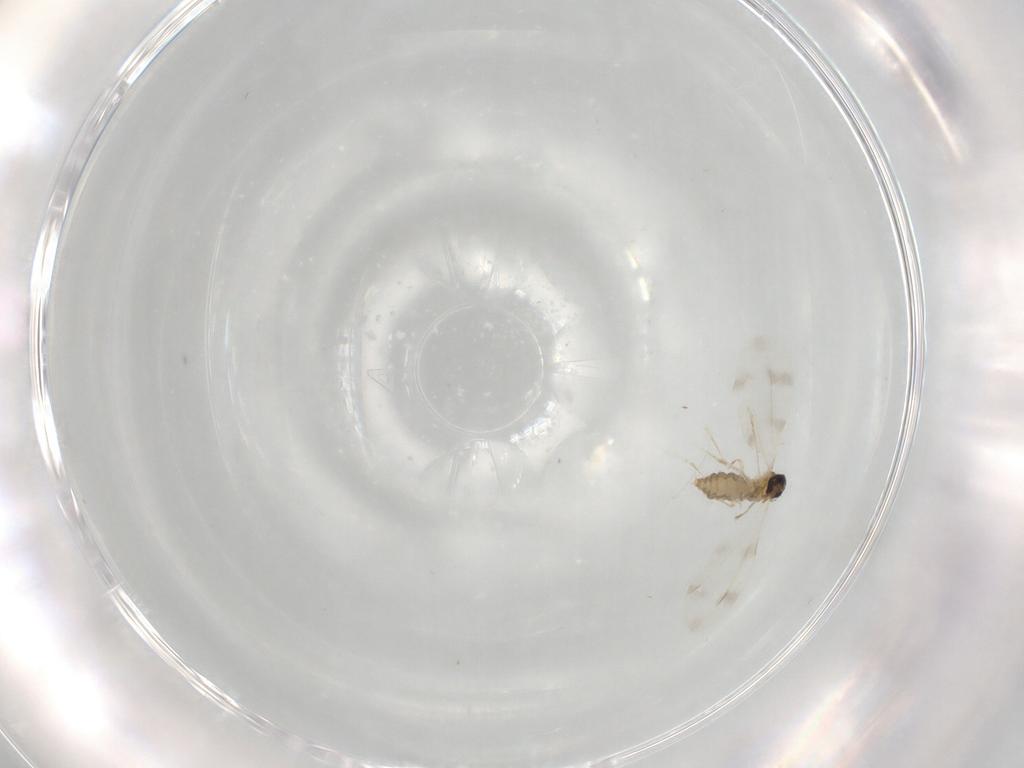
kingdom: Animalia
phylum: Arthropoda
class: Insecta
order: Diptera
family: Cecidomyiidae
